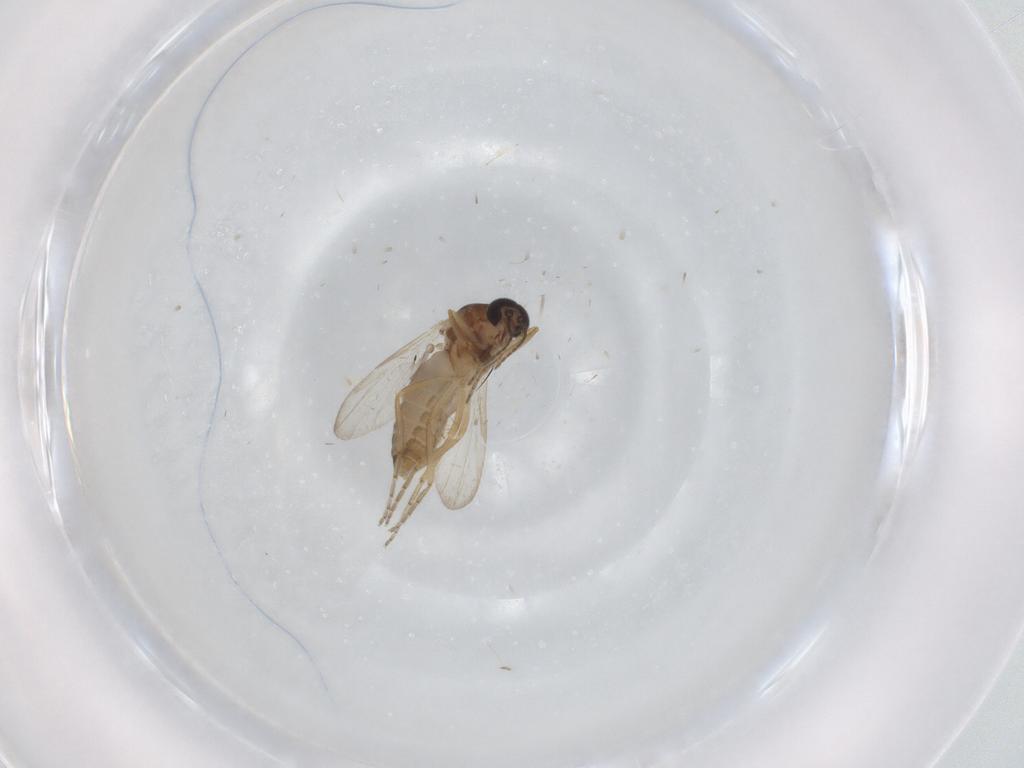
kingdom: Animalia
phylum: Arthropoda
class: Insecta
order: Diptera
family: Ceratopogonidae
